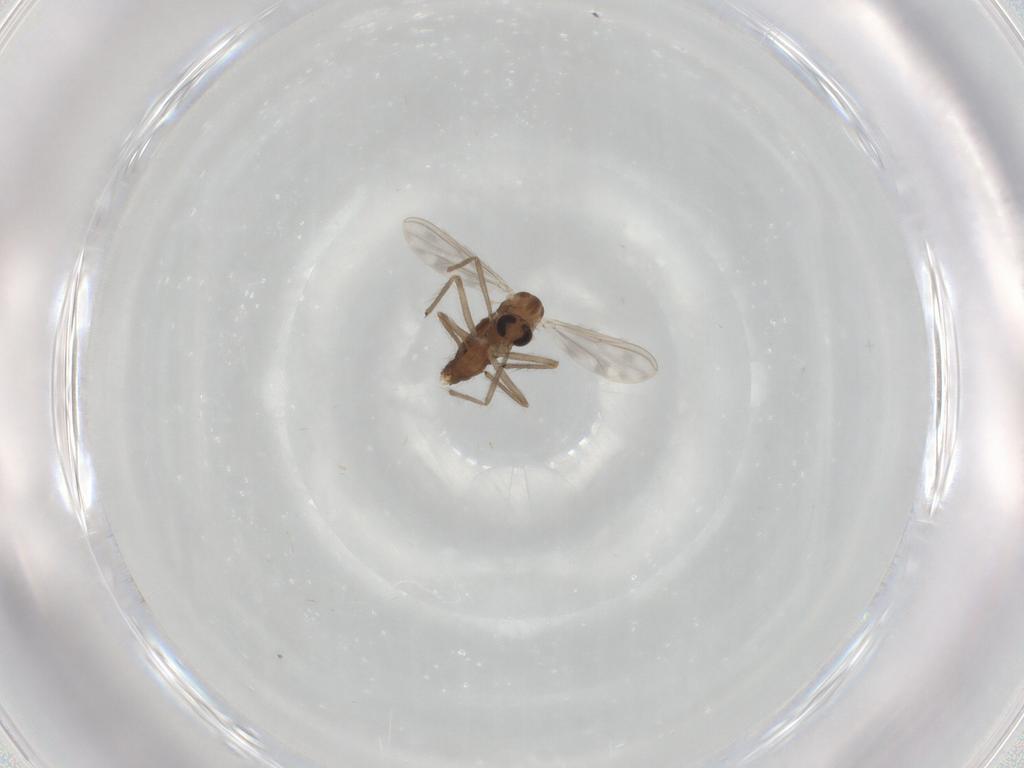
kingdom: Animalia
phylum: Arthropoda
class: Insecta
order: Diptera
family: Chironomidae
